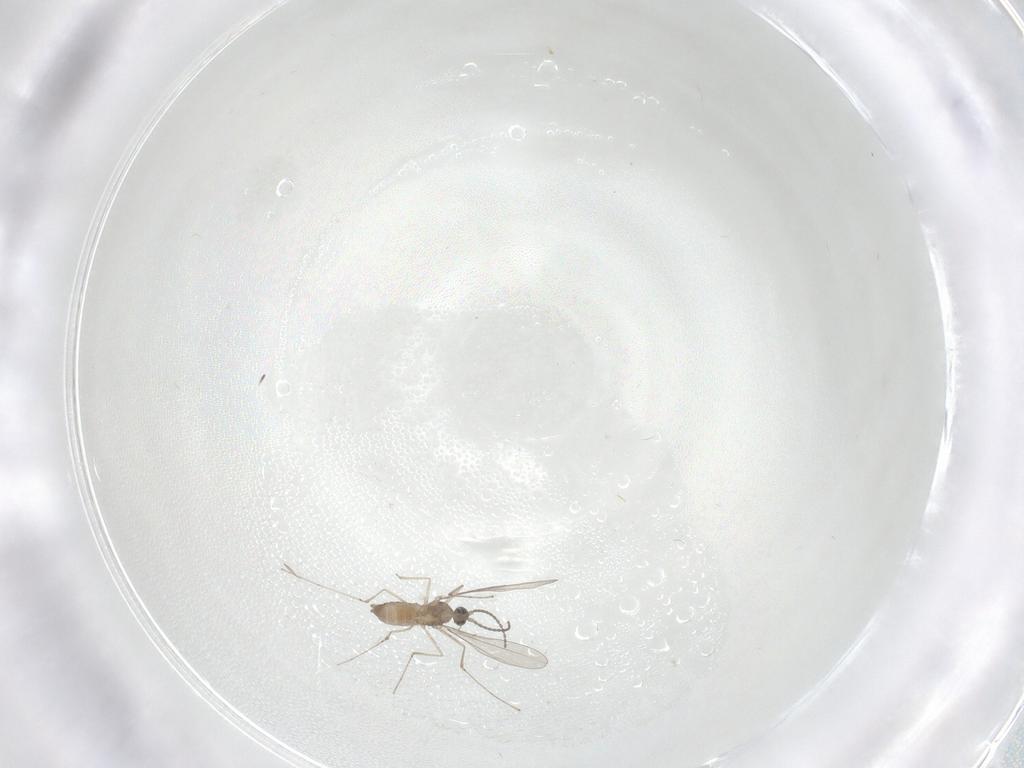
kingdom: Animalia
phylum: Arthropoda
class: Insecta
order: Diptera
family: Cecidomyiidae
